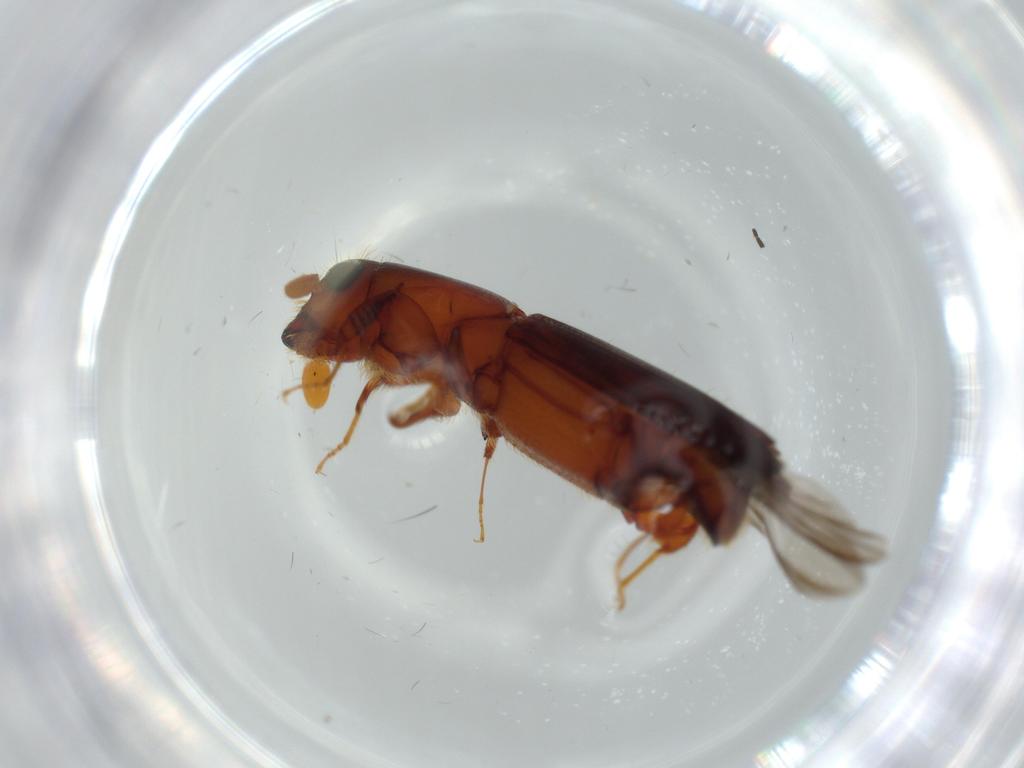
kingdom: Animalia
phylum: Arthropoda
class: Insecta
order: Coleoptera
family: Curculionidae
